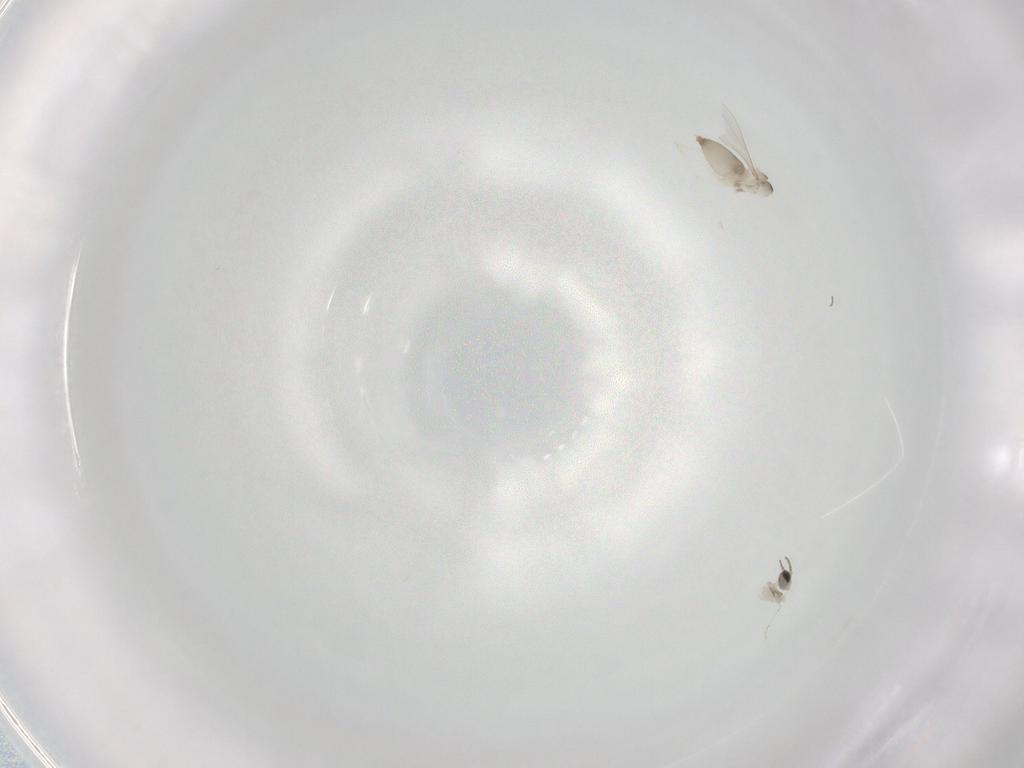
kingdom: Animalia
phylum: Arthropoda
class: Insecta
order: Diptera
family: Chironomidae
